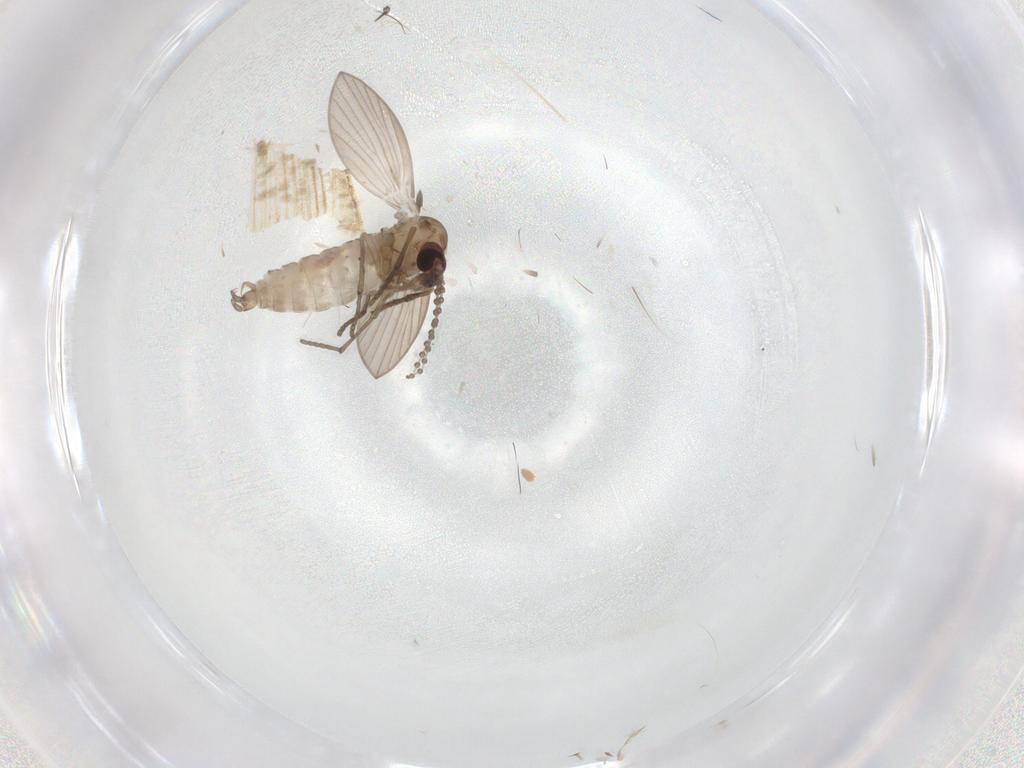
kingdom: Animalia
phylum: Arthropoda
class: Insecta
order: Diptera
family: Psychodidae
